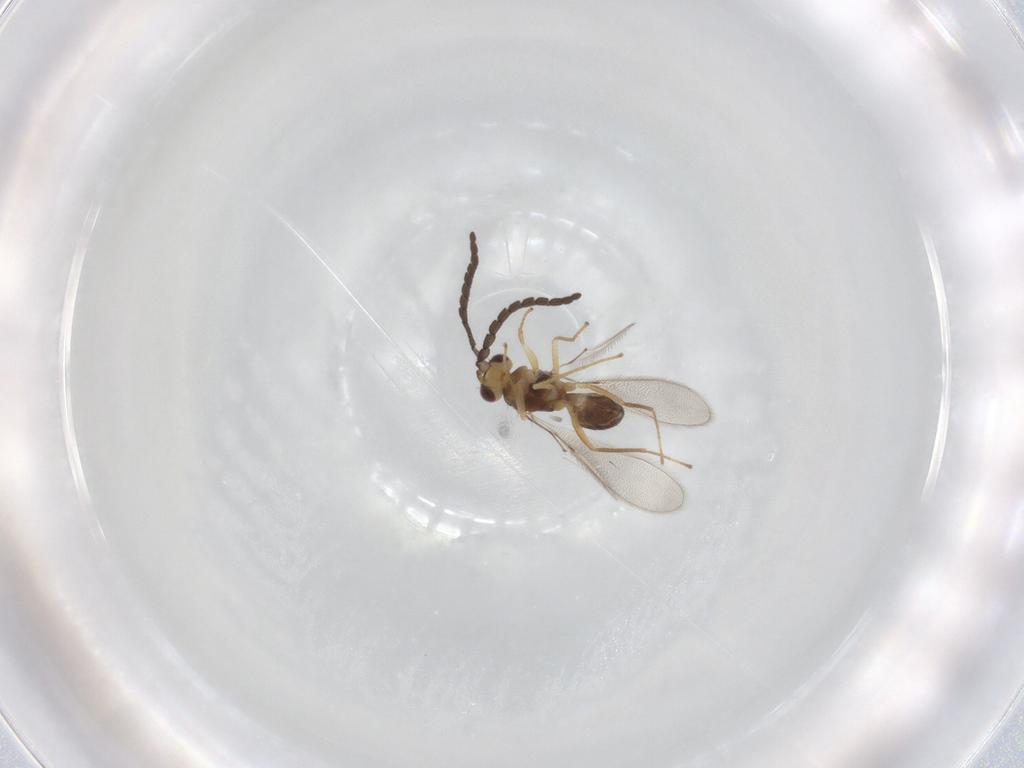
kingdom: Animalia
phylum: Arthropoda
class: Insecta
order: Hymenoptera
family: Mymaridae
